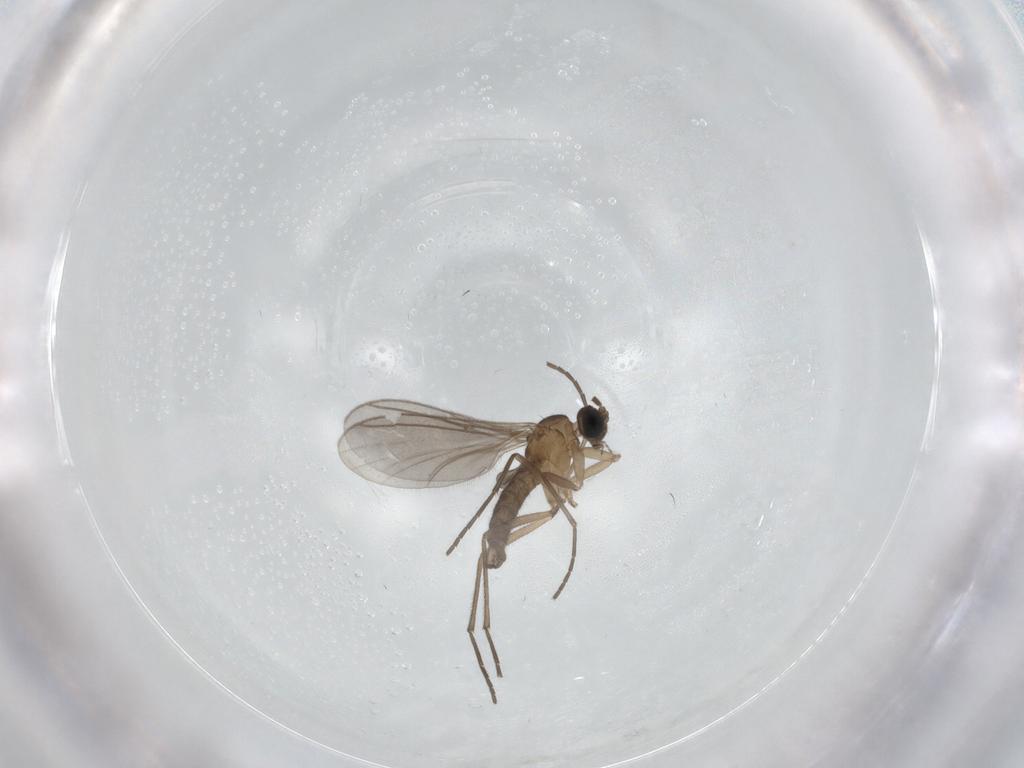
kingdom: Animalia
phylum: Arthropoda
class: Insecta
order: Diptera
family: Sciaridae
